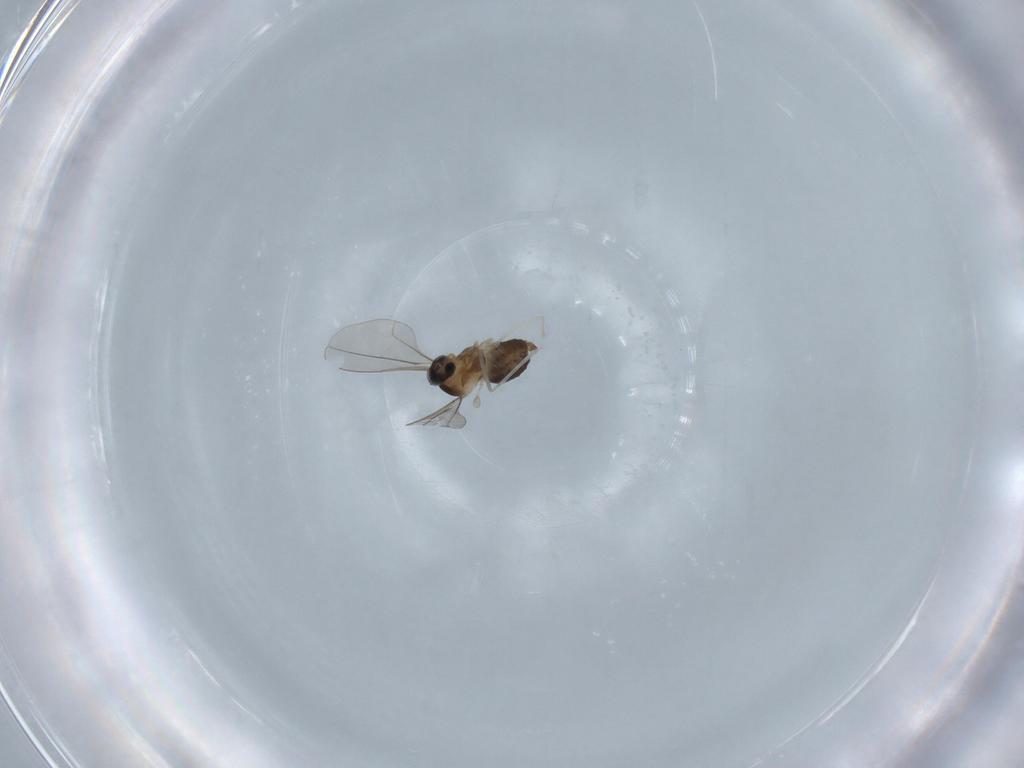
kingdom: Animalia
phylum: Arthropoda
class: Insecta
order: Diptera
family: Cecidomyiidae
